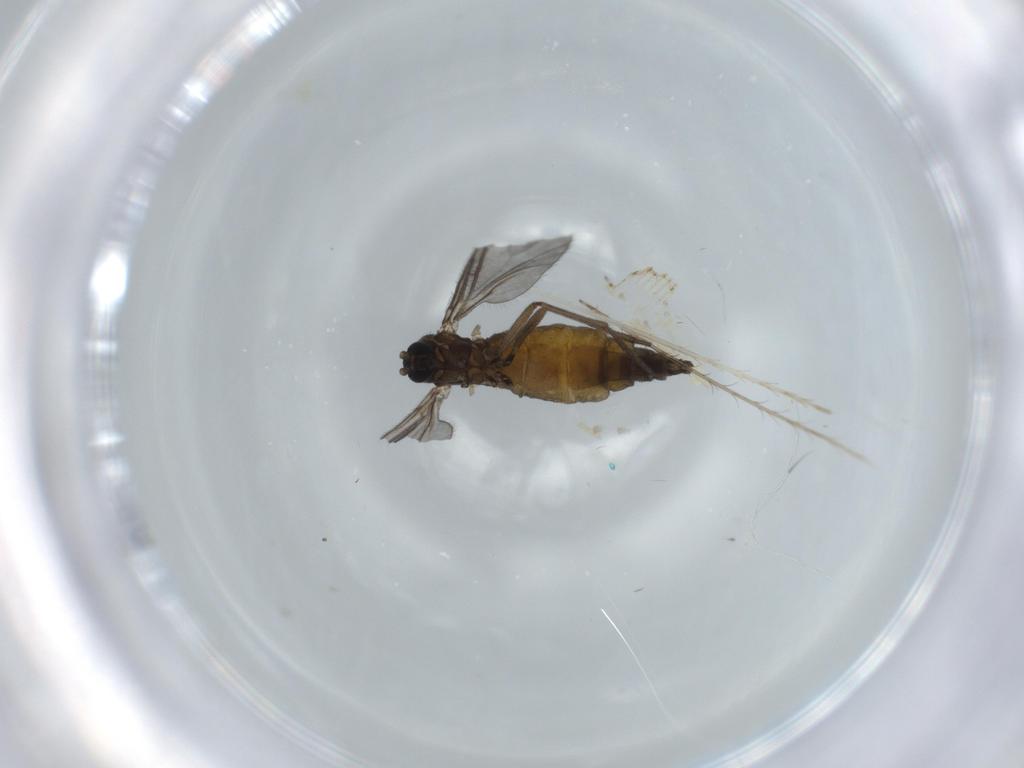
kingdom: Animalia
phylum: Arthropoda
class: Insecta
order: Diptera
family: Sciaridae
